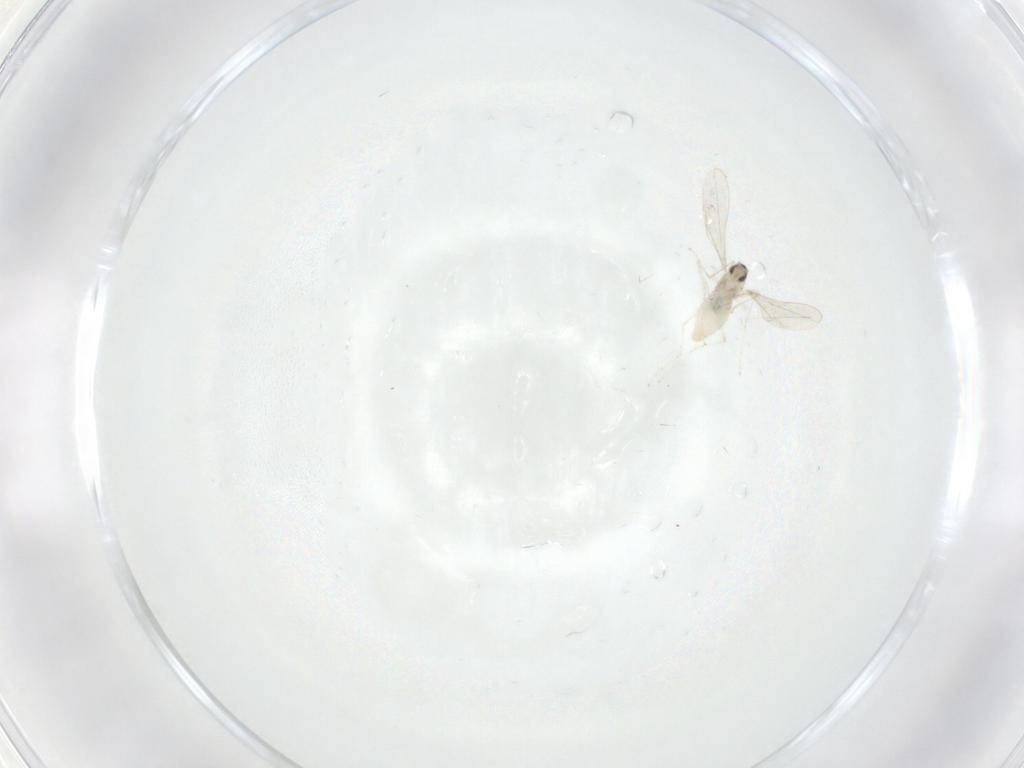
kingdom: Animalia
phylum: Arthropoda
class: Insecta
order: Diptera
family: Cecidomyiidae
